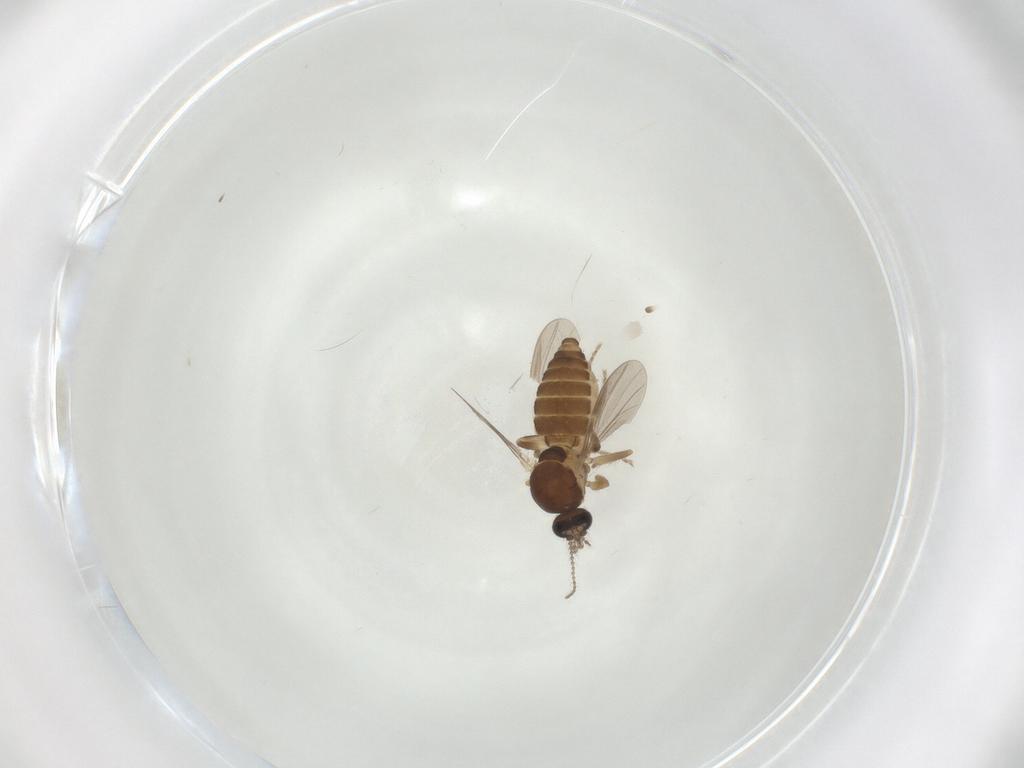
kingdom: Animalia
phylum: Arthropoda
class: Insecta
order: Diptera
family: Ceratopogonidae
